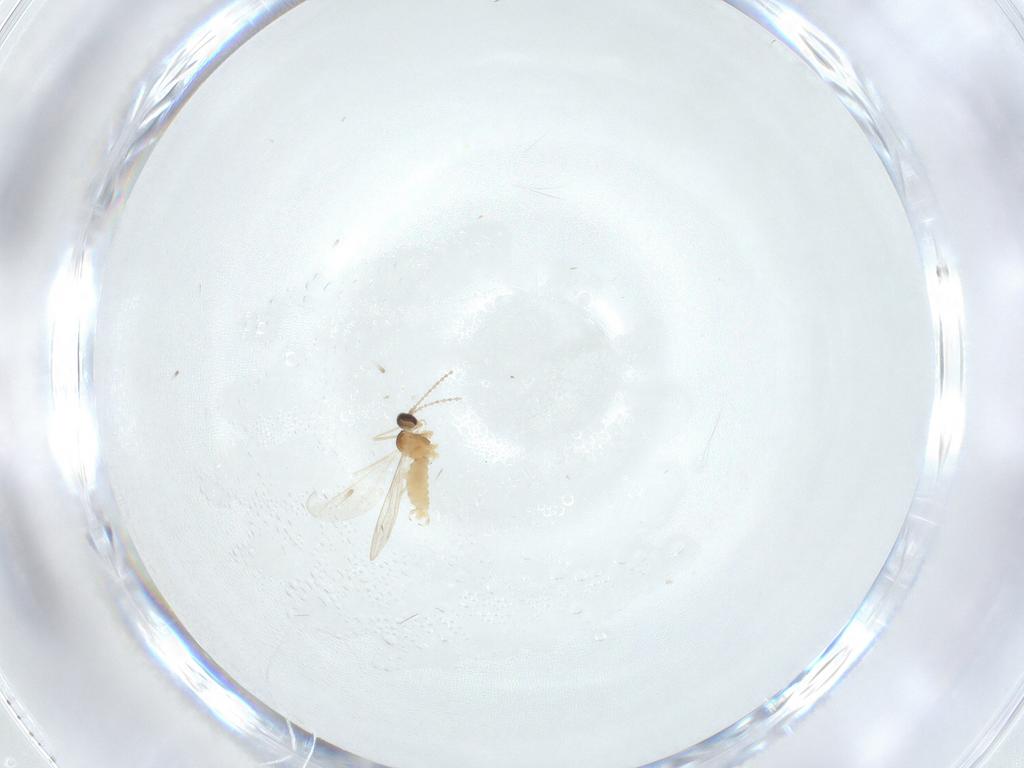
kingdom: Animalia
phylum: Arthropoda
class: Insecta
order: Diptera
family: Cecidomyiidae
